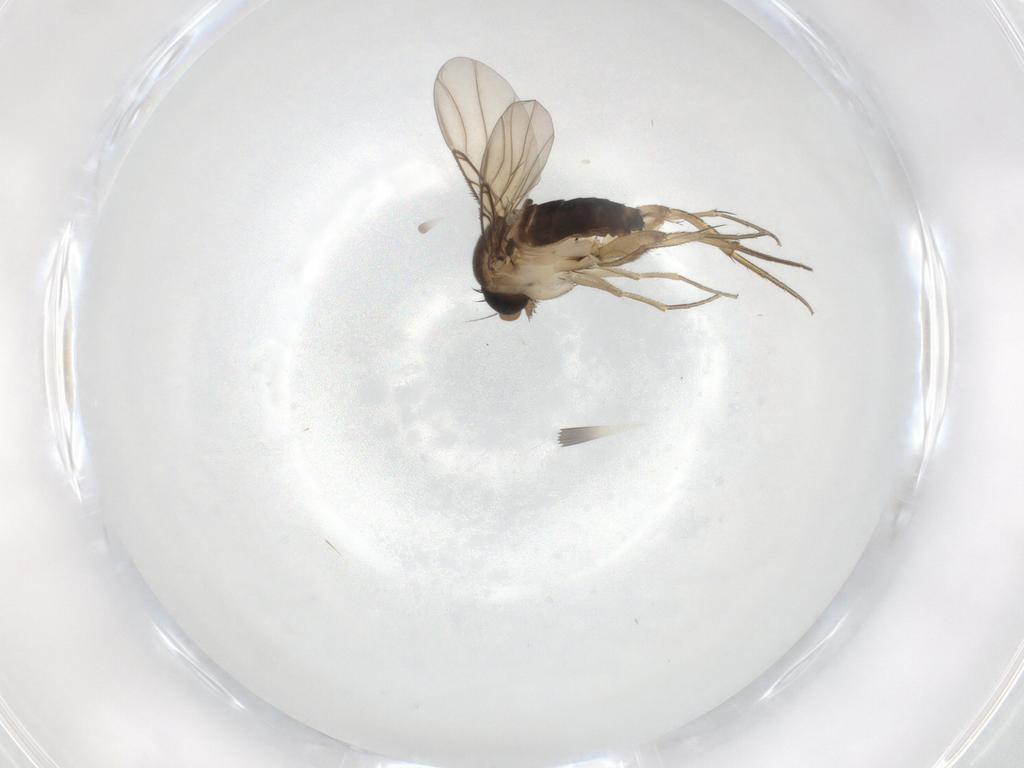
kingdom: Animalia
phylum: Arthropoda
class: Insecta
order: Diptera
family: Chironomidae
